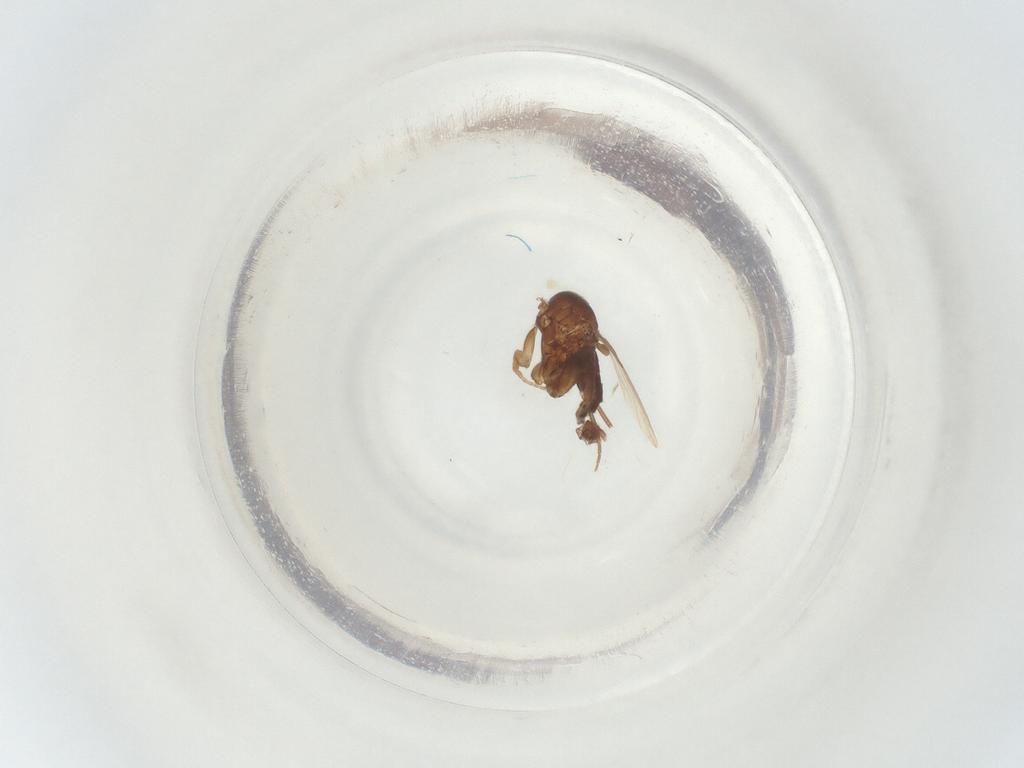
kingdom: Animalia
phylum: Arthropoda
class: Insecta
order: Diptera
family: Phoridae
